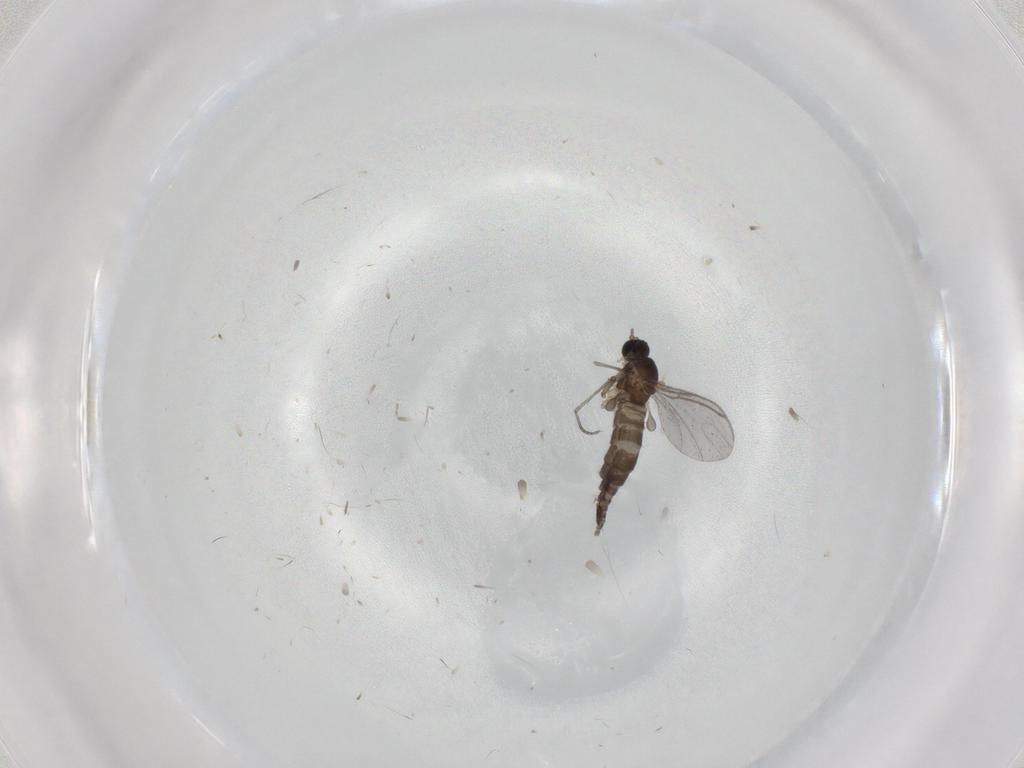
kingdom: Animalia
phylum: Arthropoda
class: Insecta
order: Diptera
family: Sciaridae
